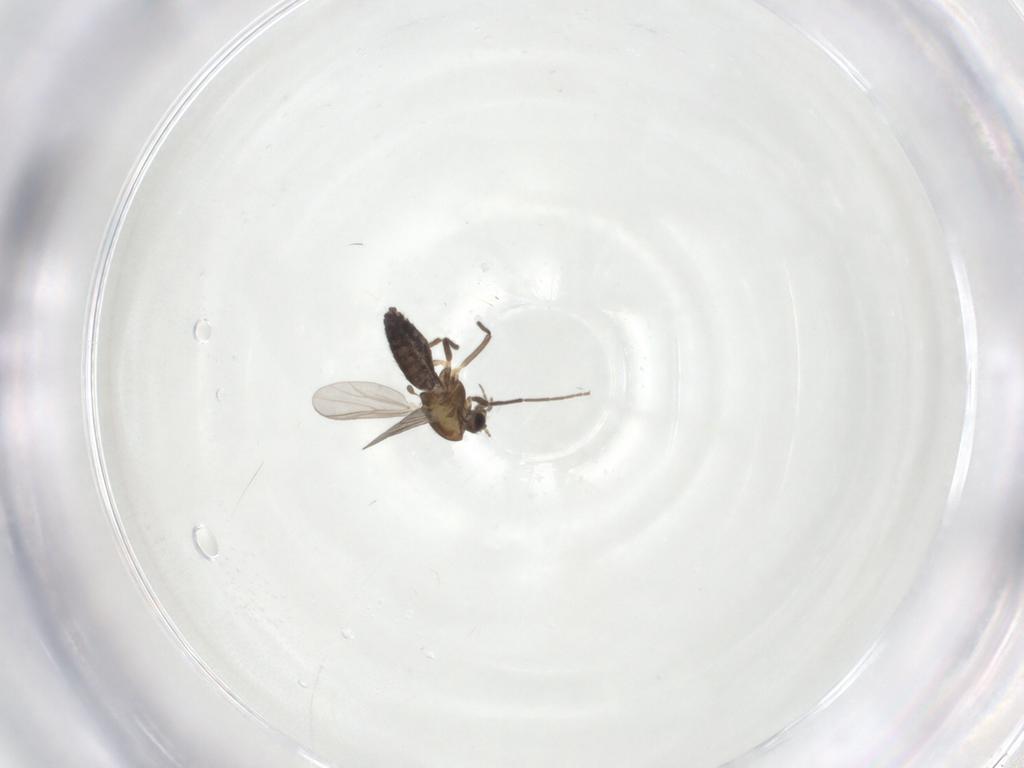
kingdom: Animalia
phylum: Arthropoda
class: Insecta
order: Diptera
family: Chironomidae
